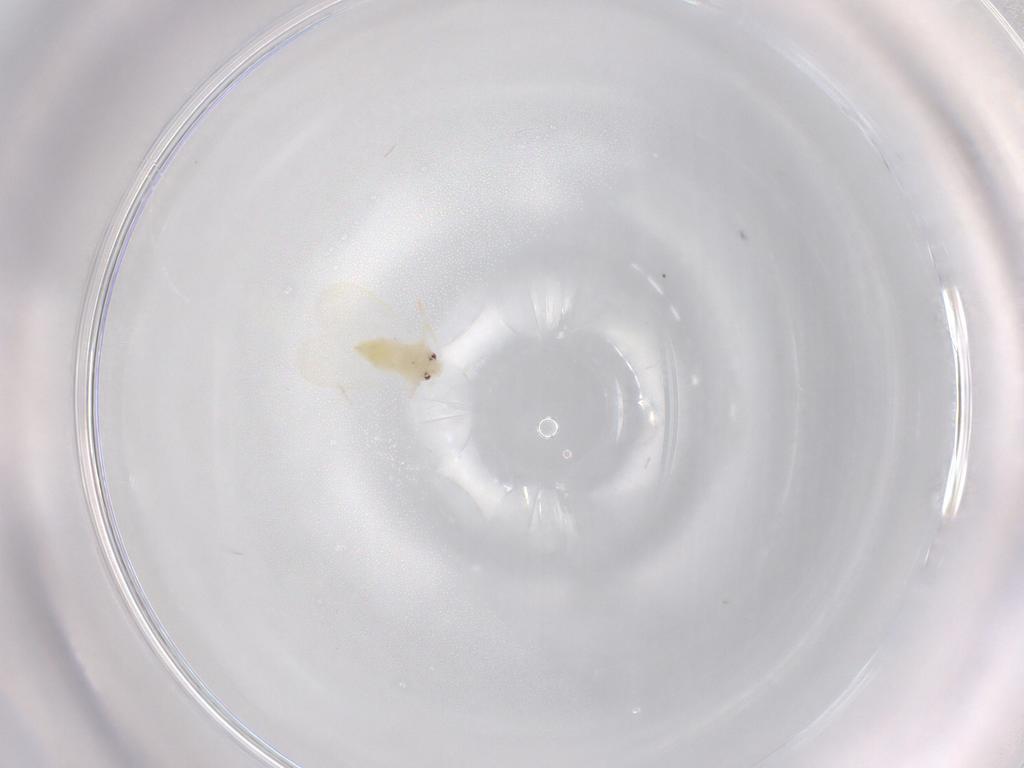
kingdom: Animalia
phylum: Arthropoda
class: Insecta
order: Hemiptera
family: Aleyrodidae
